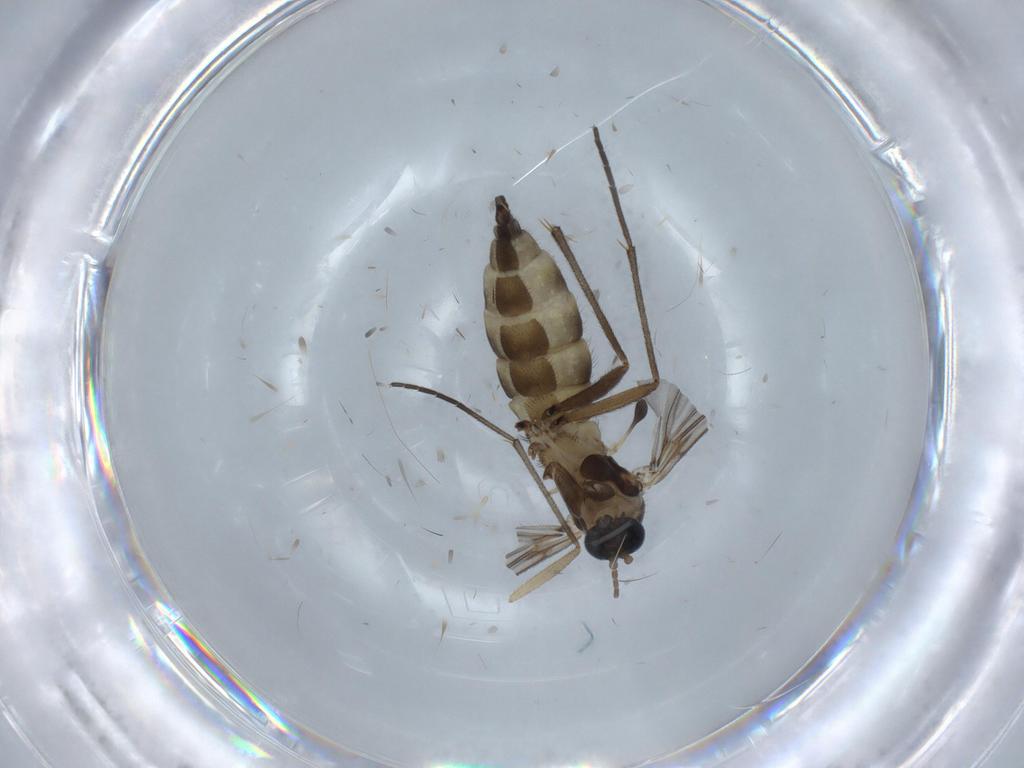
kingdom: Animalia
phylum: Arthropoda
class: Insecta
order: Diptera
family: Sciaridae
